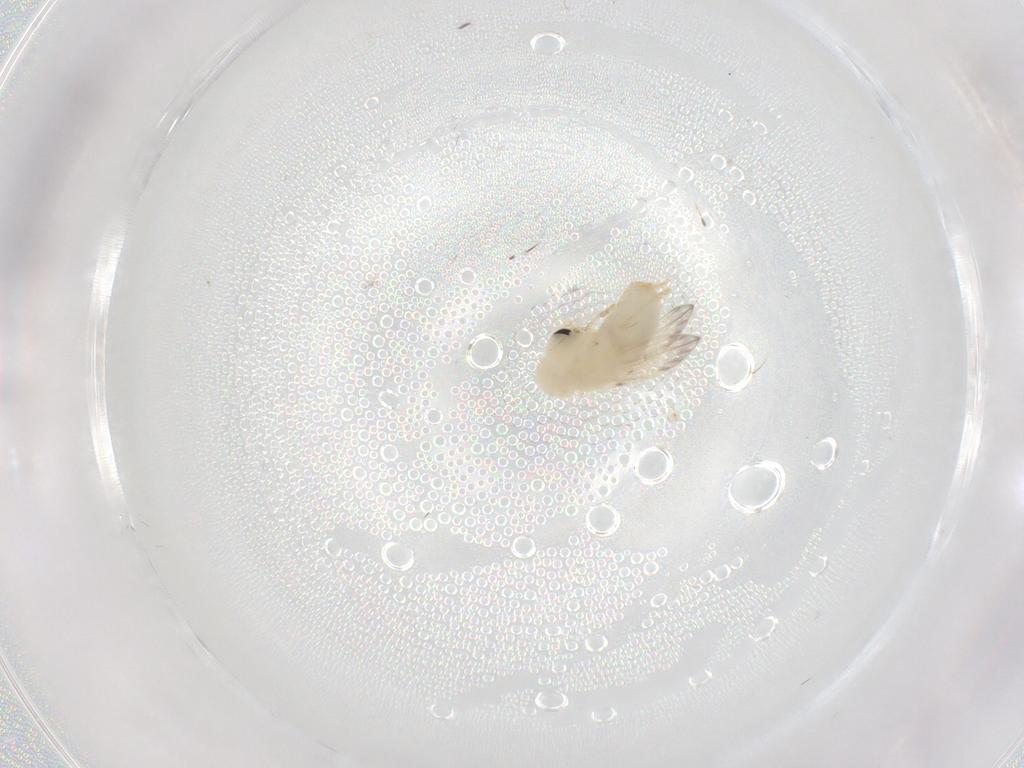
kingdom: Animalia
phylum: Arthropoda
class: Insecta
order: Diptera
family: Psychodidae
